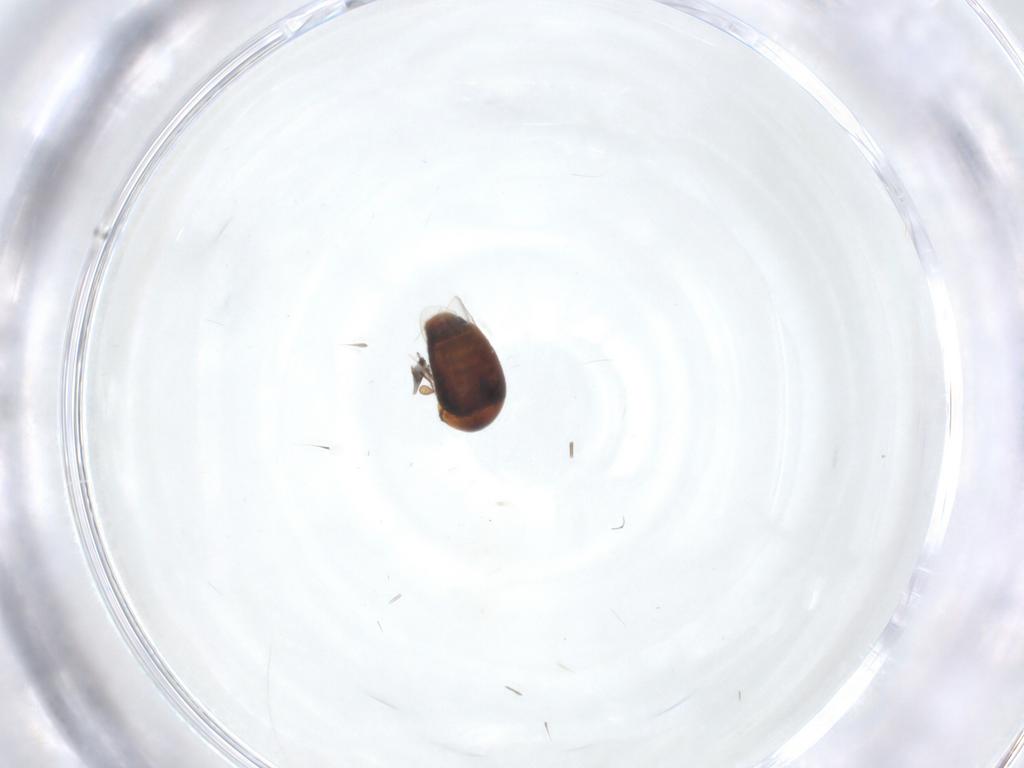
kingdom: Animalia
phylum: Arthropoda
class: Insecta
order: Coleoptera
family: Corylophidae
